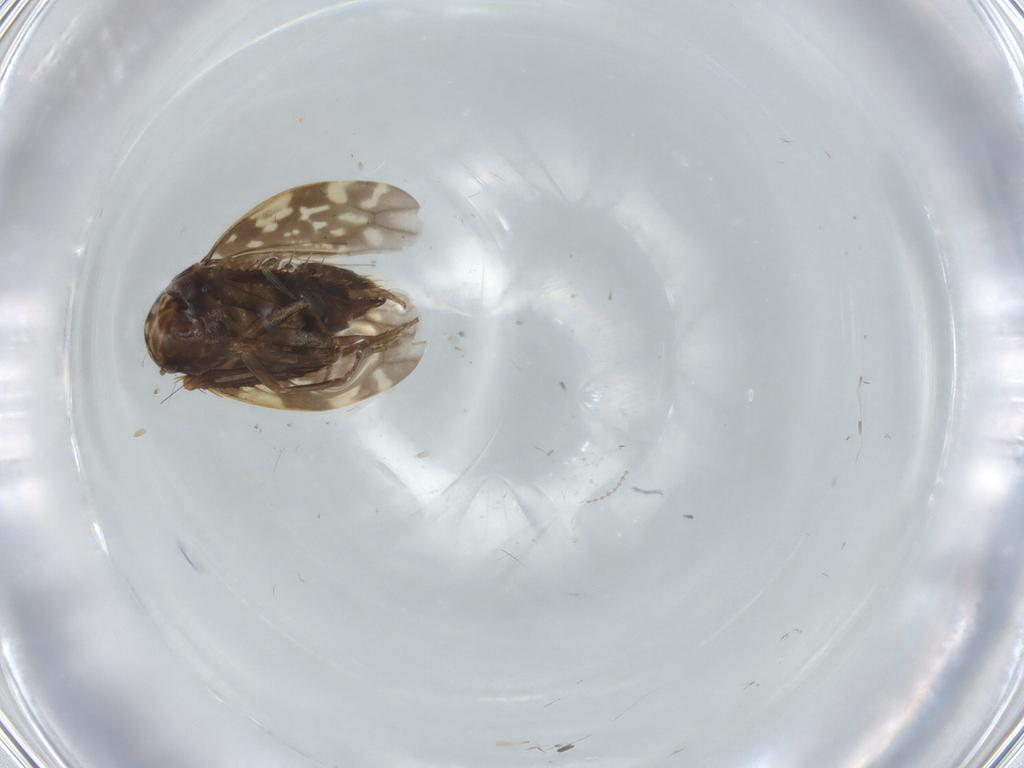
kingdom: Animalia
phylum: Arthropoda
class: Insecta
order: Hemiptera
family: Cicadellidae
